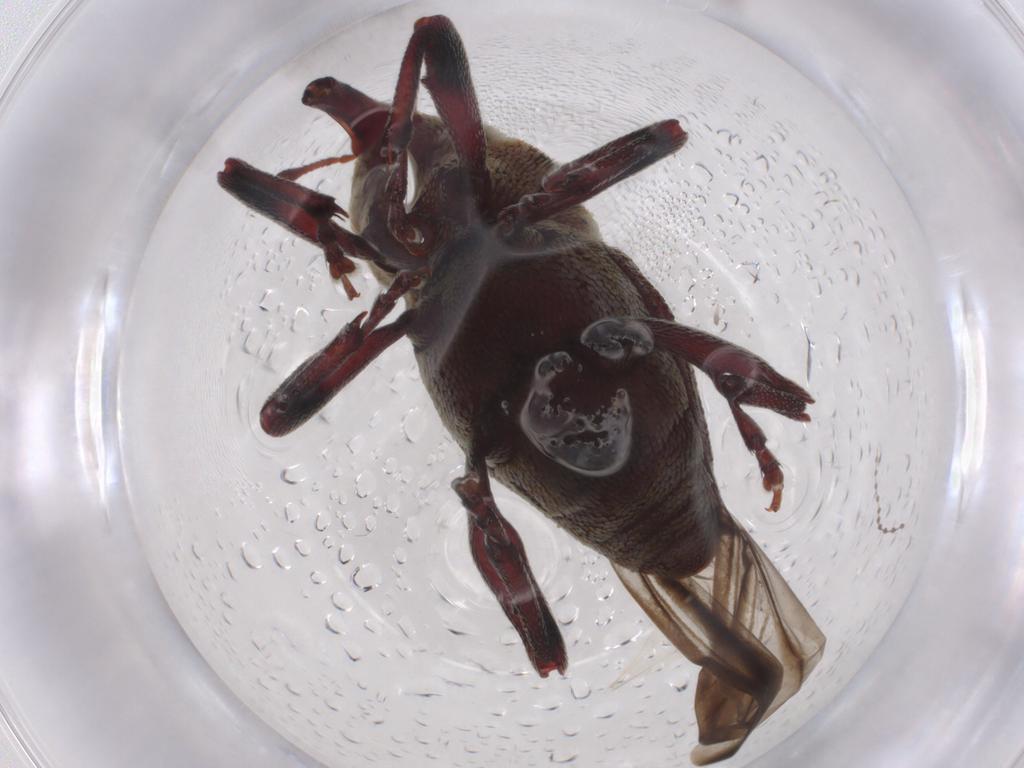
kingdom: Animalia
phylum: Arthropoda
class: Insecta
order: Coleoptera
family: Curculionidae
